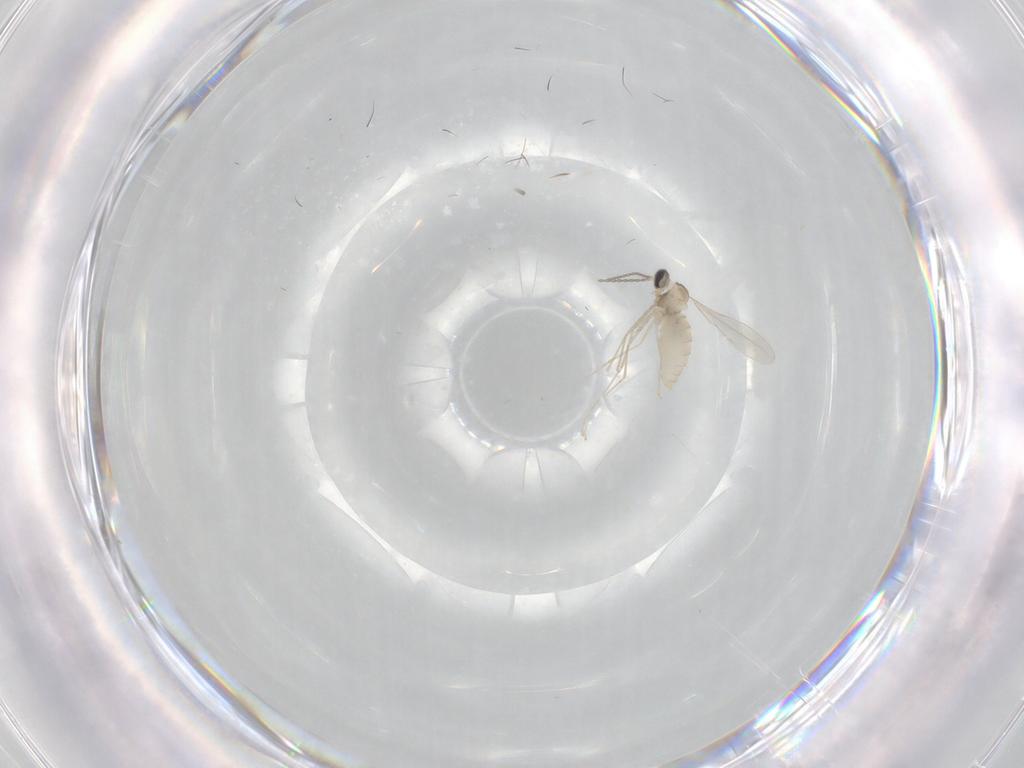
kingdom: Animalia
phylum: Arthropoda
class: Insecta
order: Diptera
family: Cecidomyiidae
